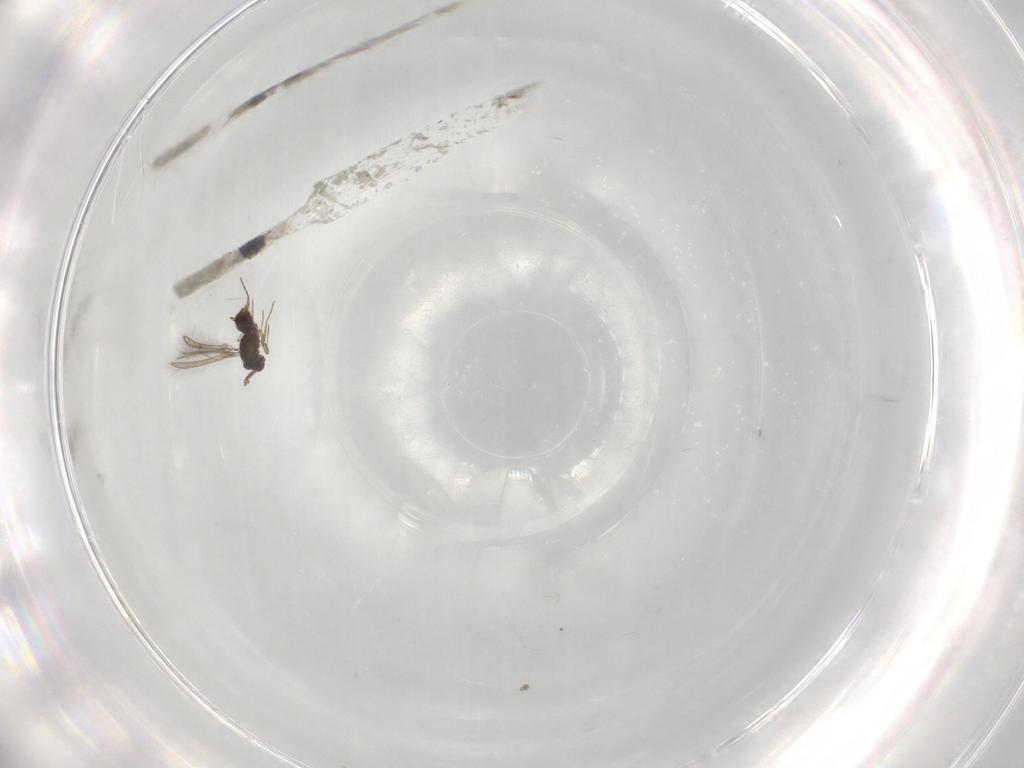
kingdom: Animalia
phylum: Arthropoda
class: Insecta
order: Hymenoptera
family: Mymaridae
